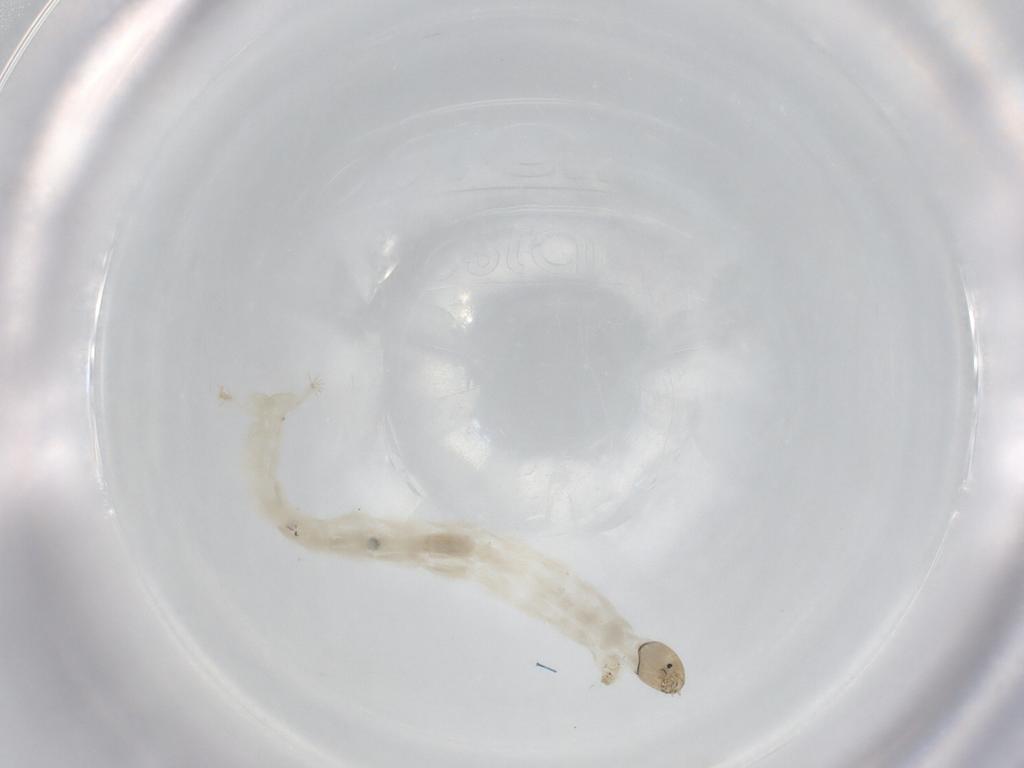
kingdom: Animalia
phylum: Arthropoda
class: Insecta
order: Diptera
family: Chironomidae
